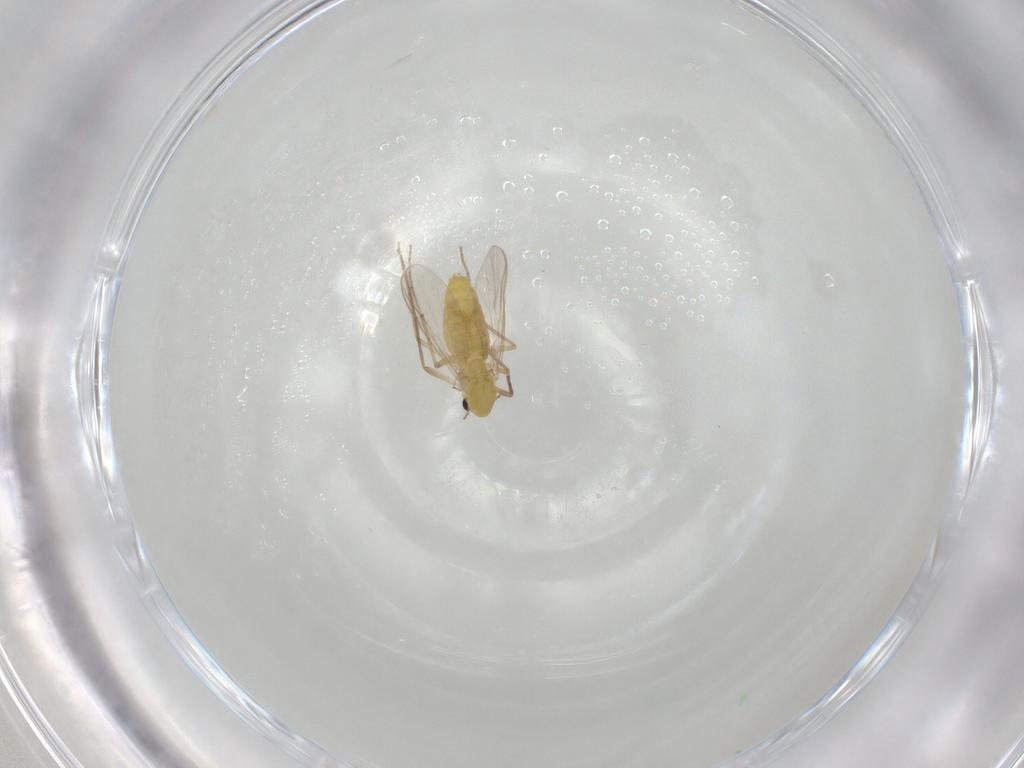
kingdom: Animalia
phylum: Arthropoda
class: Insecta
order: Diptera
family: Chironomidae
